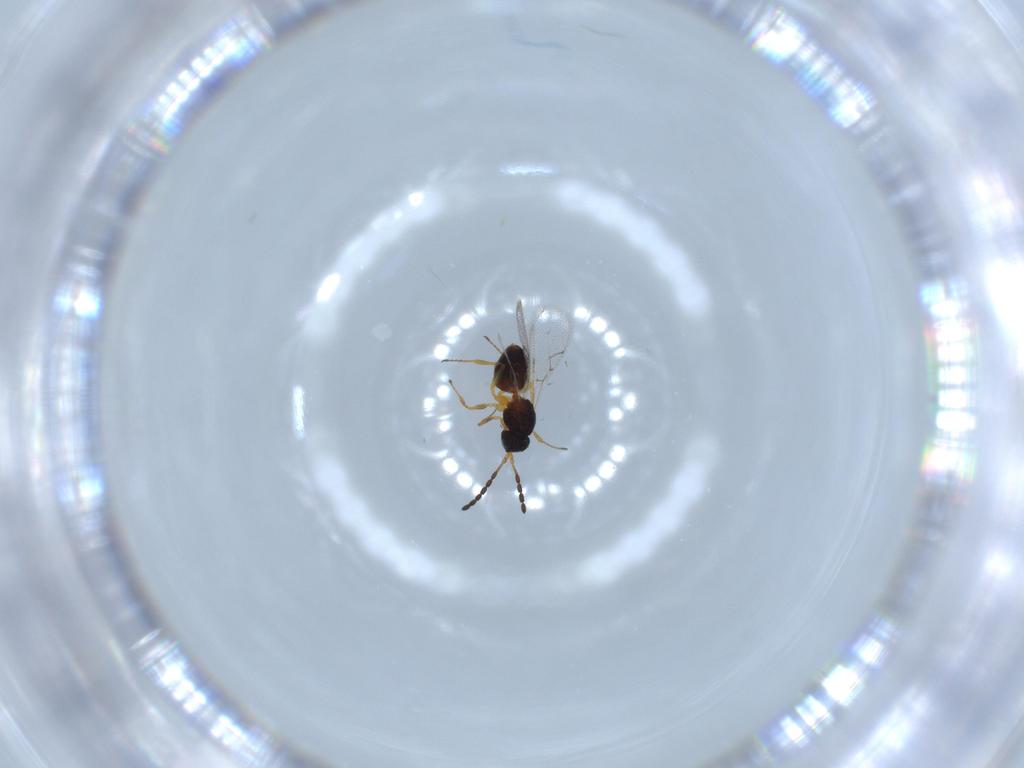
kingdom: Animalia
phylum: Arthropoda
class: Insecta
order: Hymenoptera
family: Figitidae
